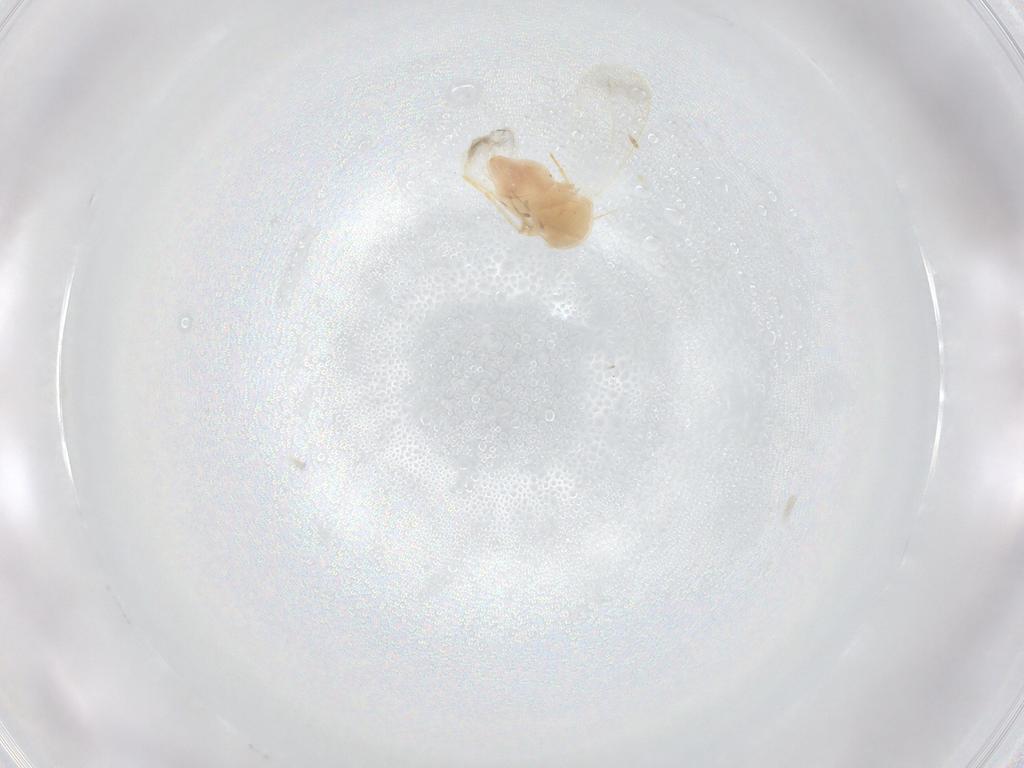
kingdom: Animalia
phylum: Arthropoda
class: Insecta
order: Hemiptera
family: Aleyrodidae
